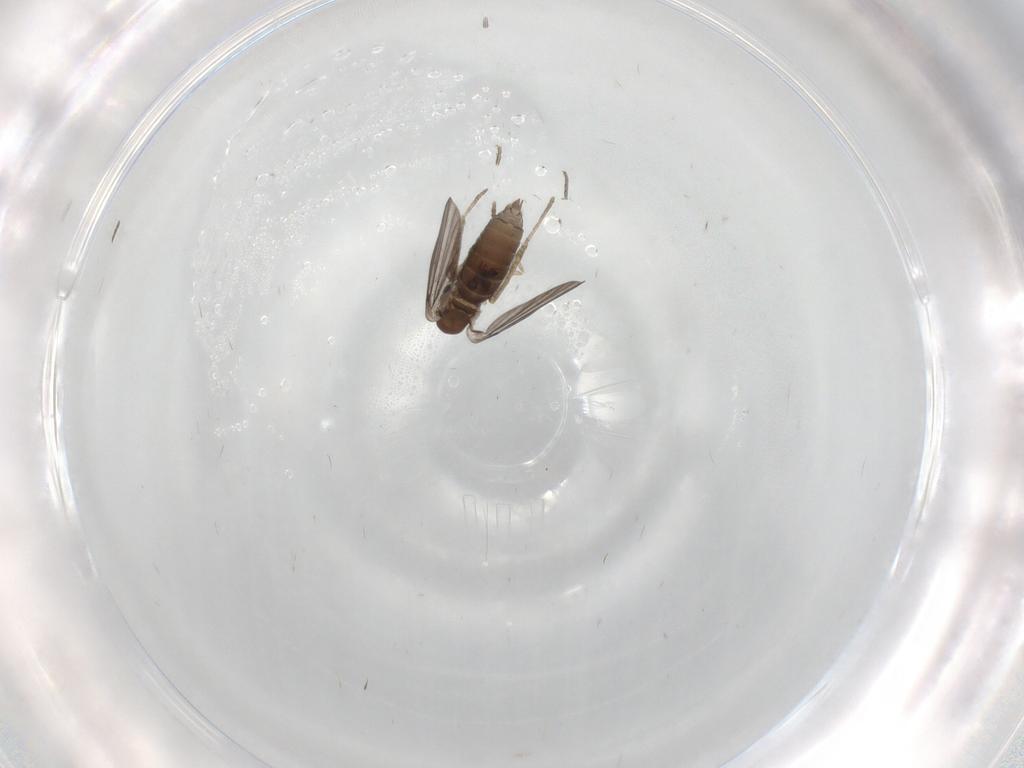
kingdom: Animalia
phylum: Arthropoda
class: Insecta
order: Diptera
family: Sciaridae
